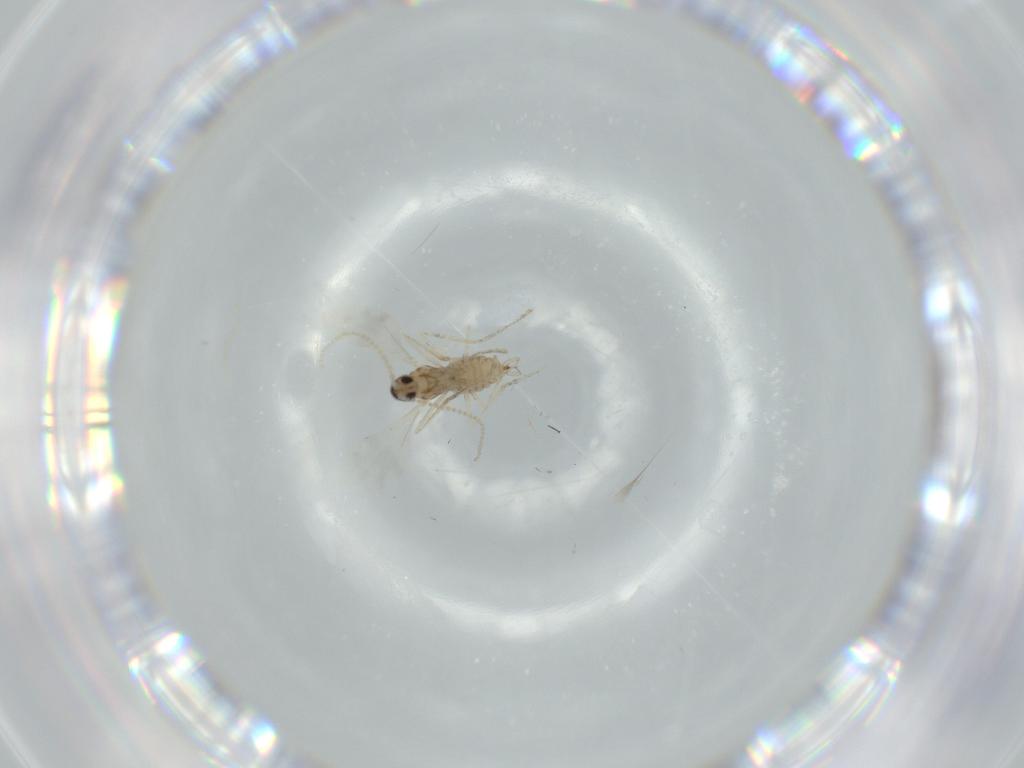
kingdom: Animalia
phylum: Arthropoda
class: Insecta
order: Diptera
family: Cecidomyiidae
